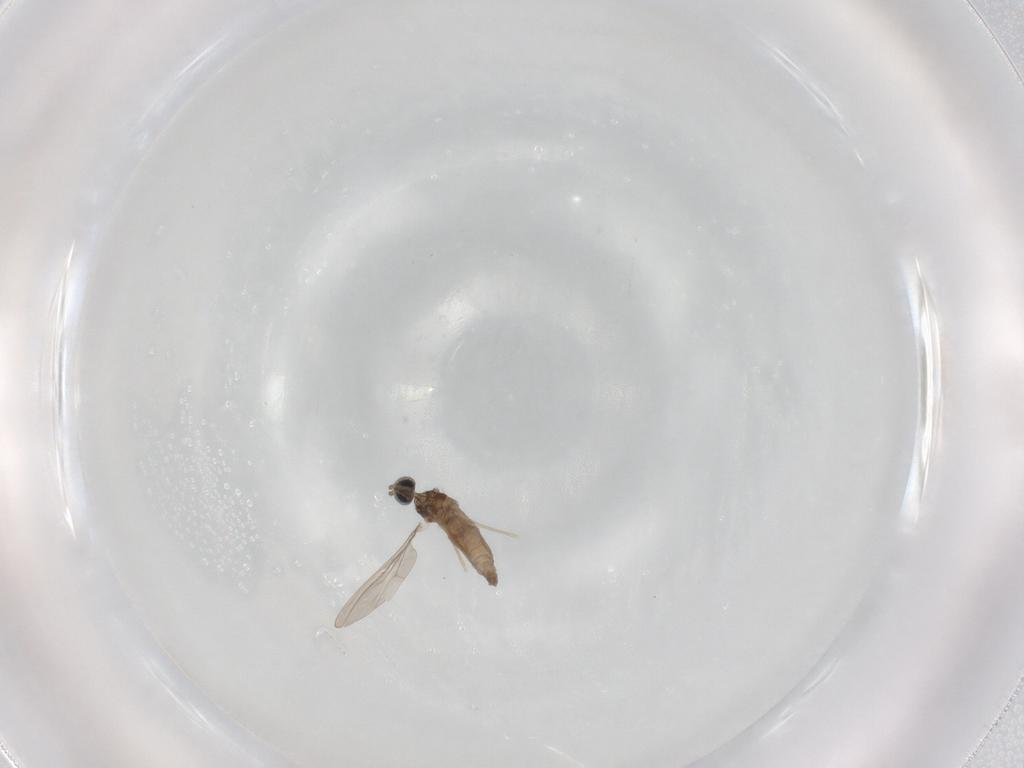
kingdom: Animalia
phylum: Arthropoda
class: Insecta
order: Diptera
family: Cecidomyiidae
